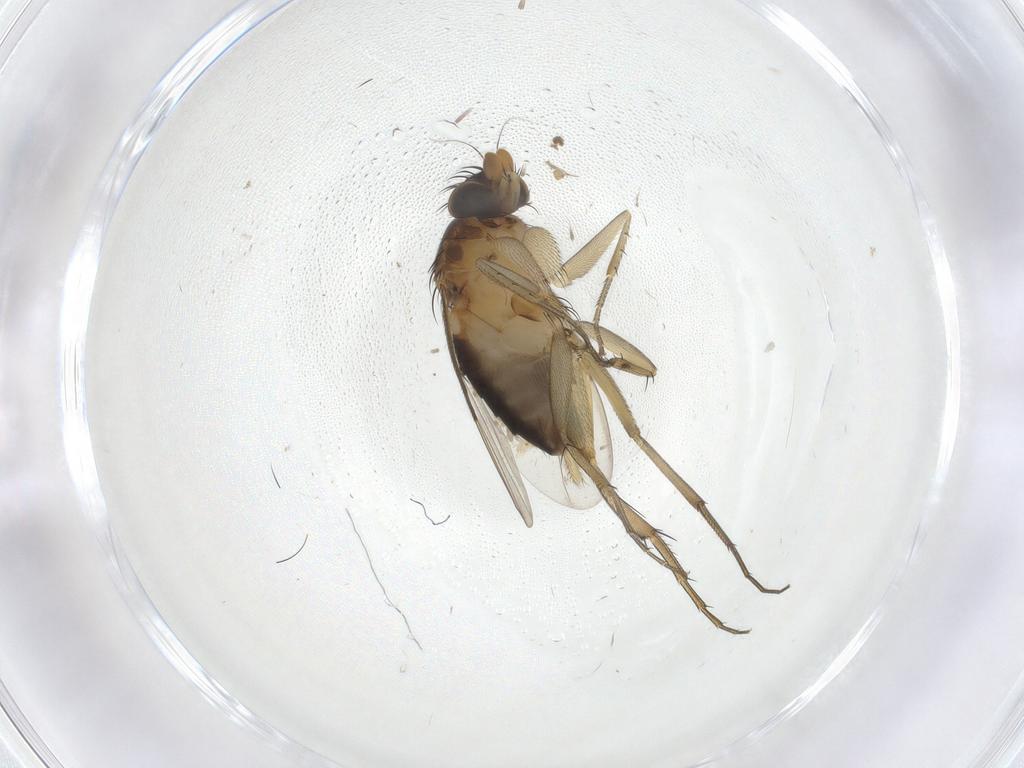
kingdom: Animalia
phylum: Arthropoda
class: Insecta
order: Diptera
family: Phoridae
